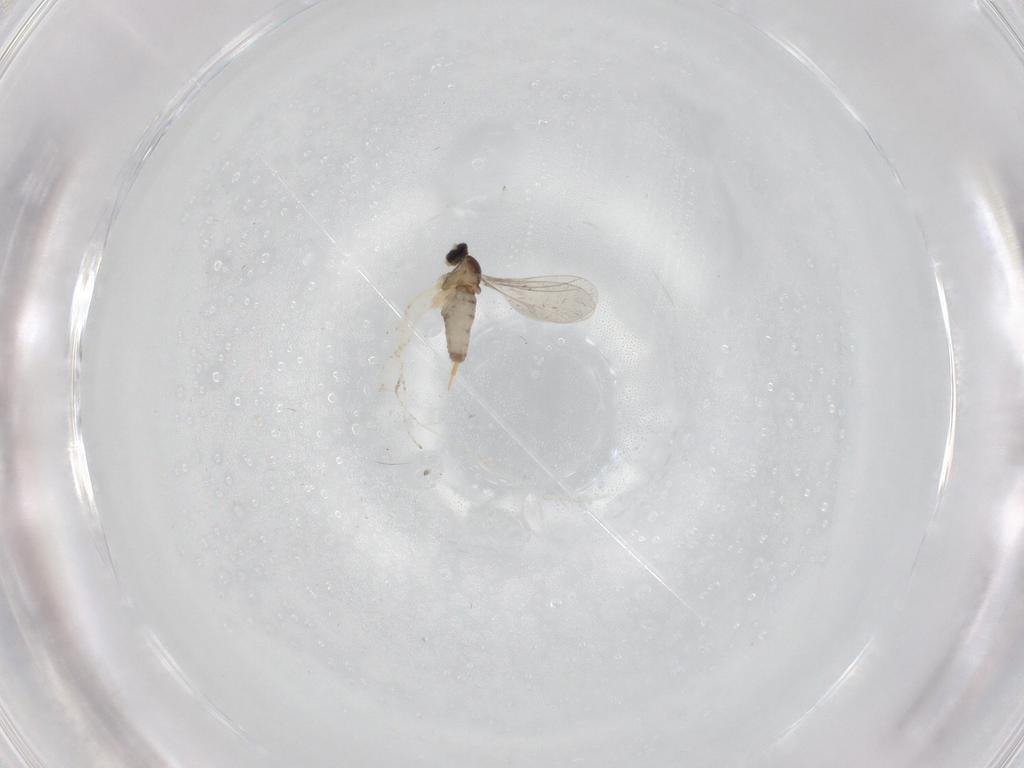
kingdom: Animalia
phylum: Arthropoda
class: Insecta
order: Diptera
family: Cecidomyiidae
